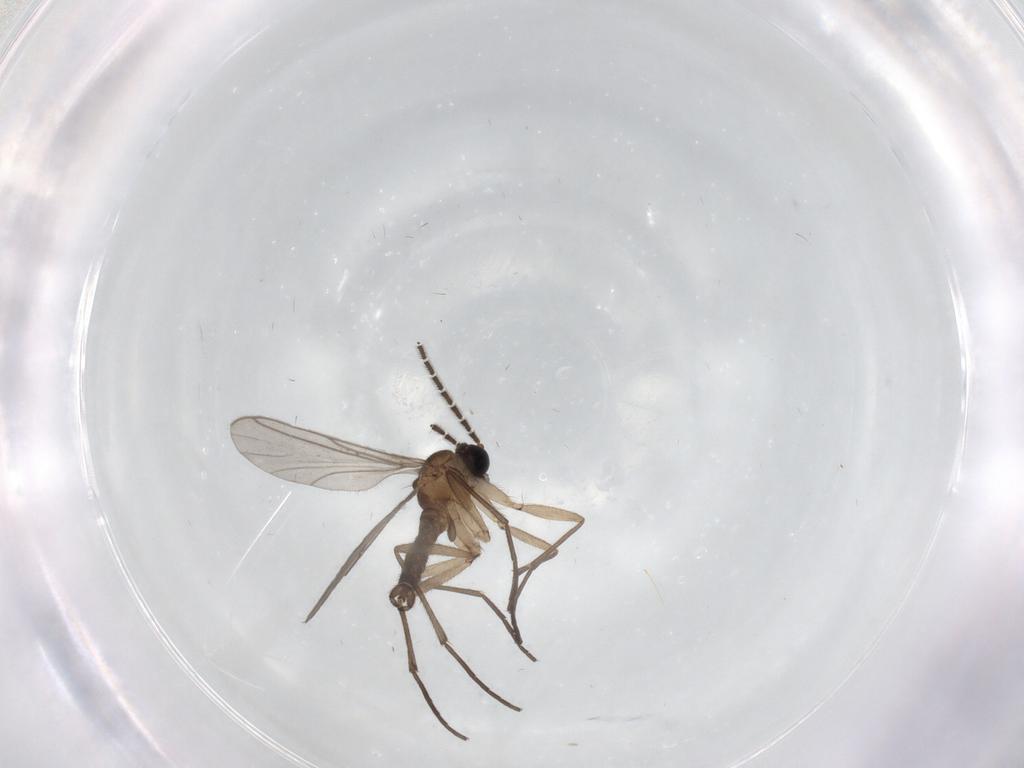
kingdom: Animalia
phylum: Arthropoda
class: Insecta
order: Diptera
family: Sciaridae
